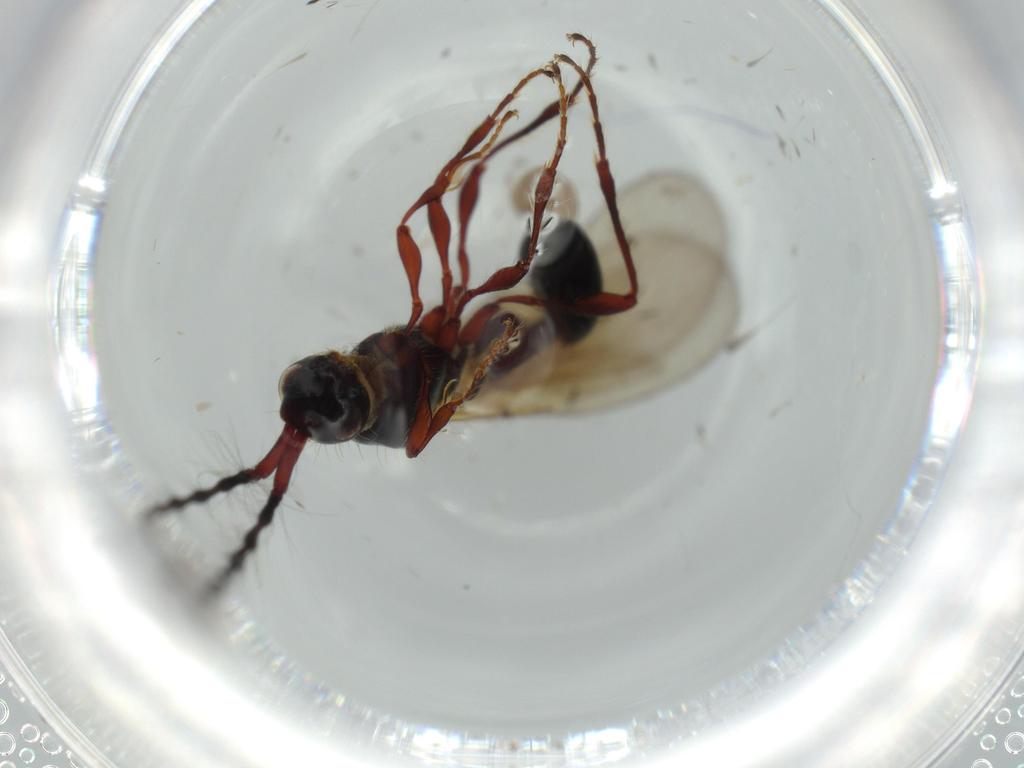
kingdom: Animalia
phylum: Arthropoda
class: Insecta
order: Hymenoptera
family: Diapriidae
